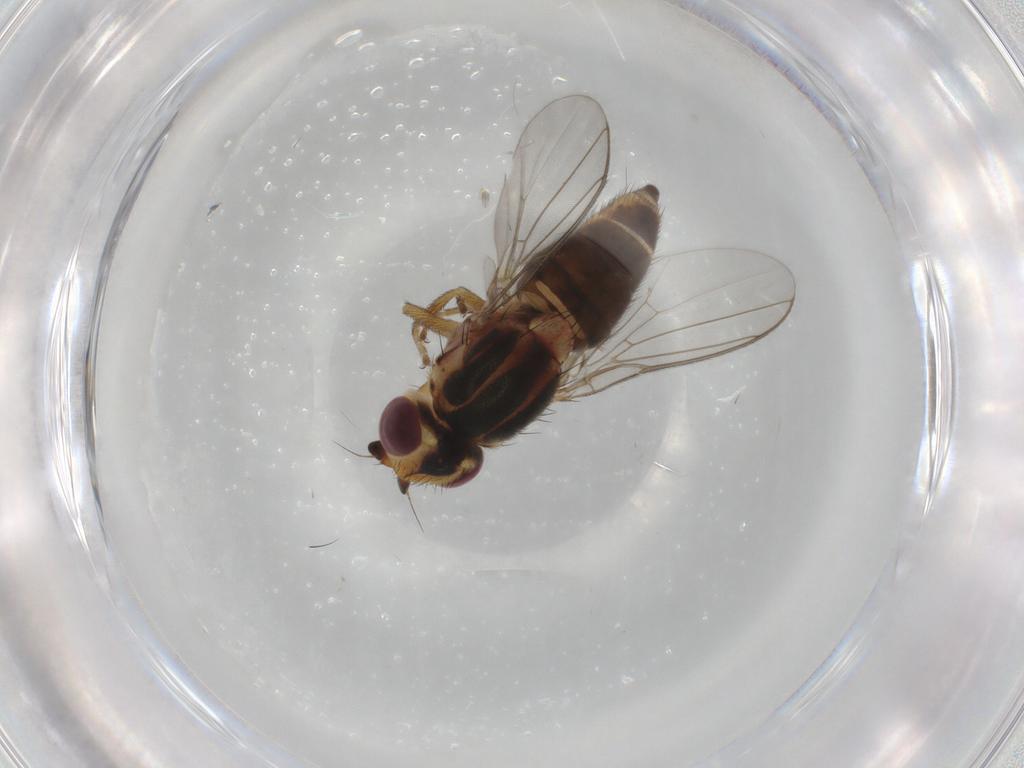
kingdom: Animalia
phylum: Arthropoda
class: Insecta
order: Diptera
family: Chloropidae
